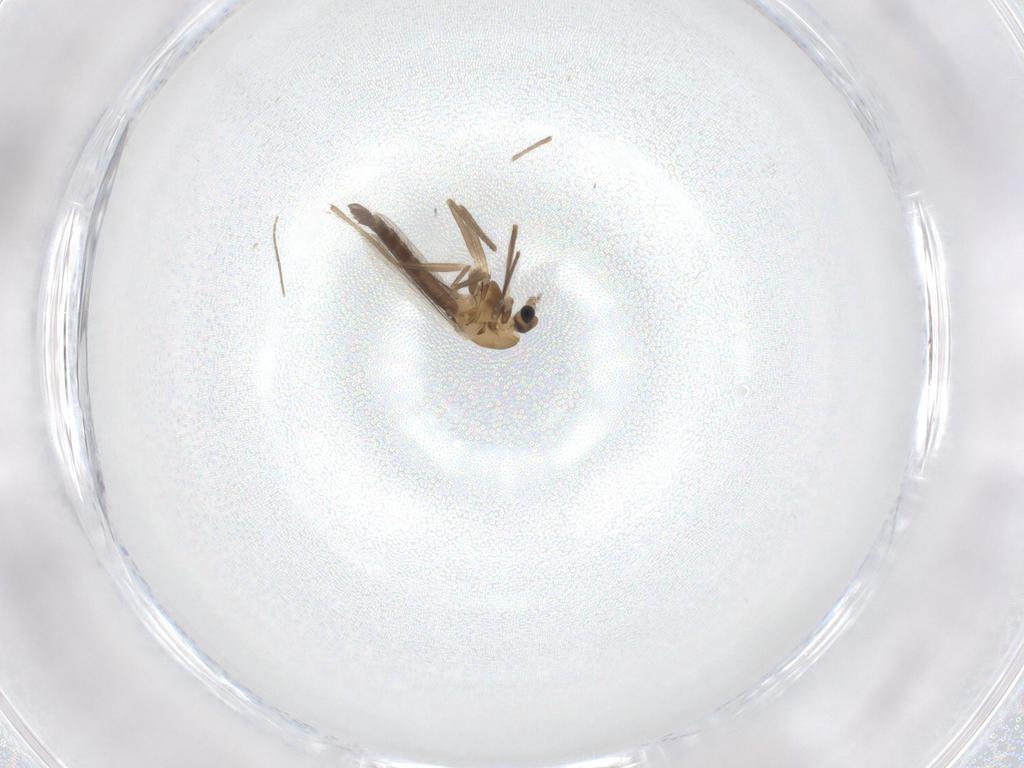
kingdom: Animalia
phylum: Arthropoda
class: Insecta
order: Diptera
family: Chironomidae
